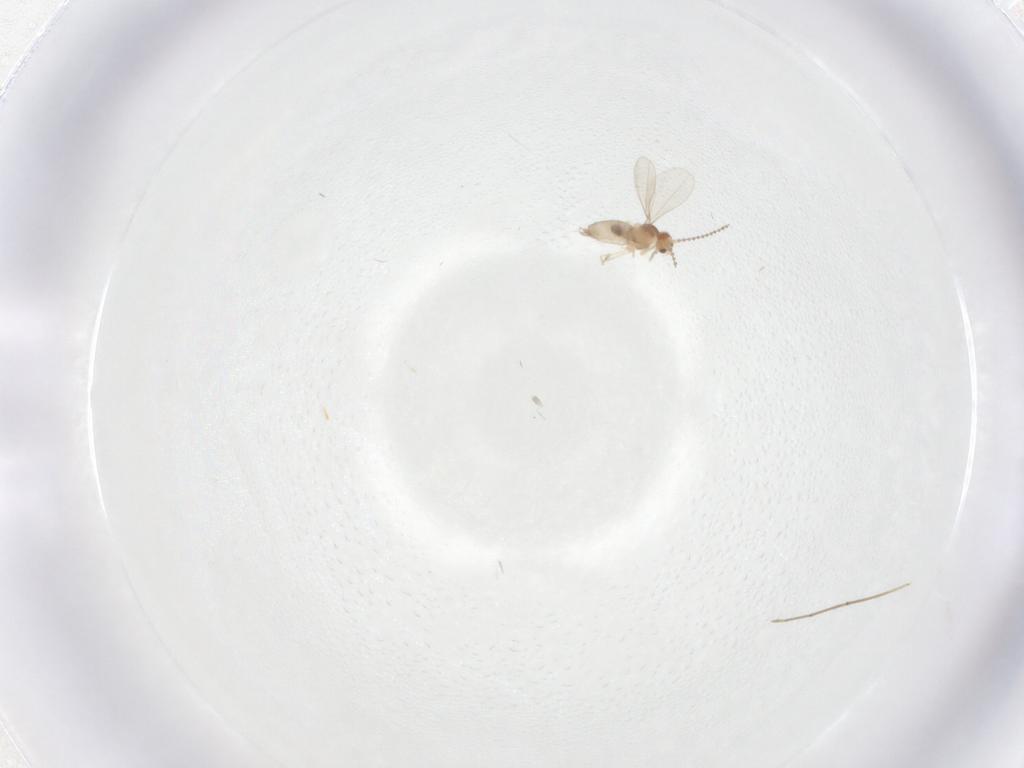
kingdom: Animalia
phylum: Arthropoda
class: Insecta
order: Diptera
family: Cecidomyiidae
